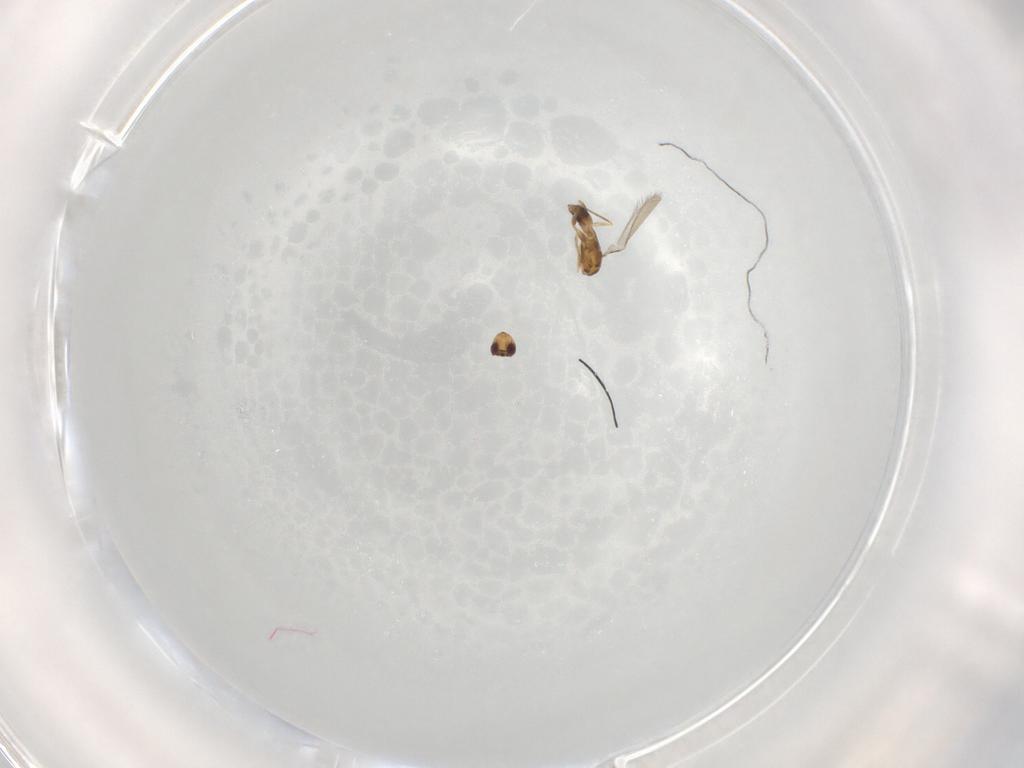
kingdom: Animalia
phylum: Arthropoda
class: Insecta
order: Hymenoptera
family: Mymaridae
